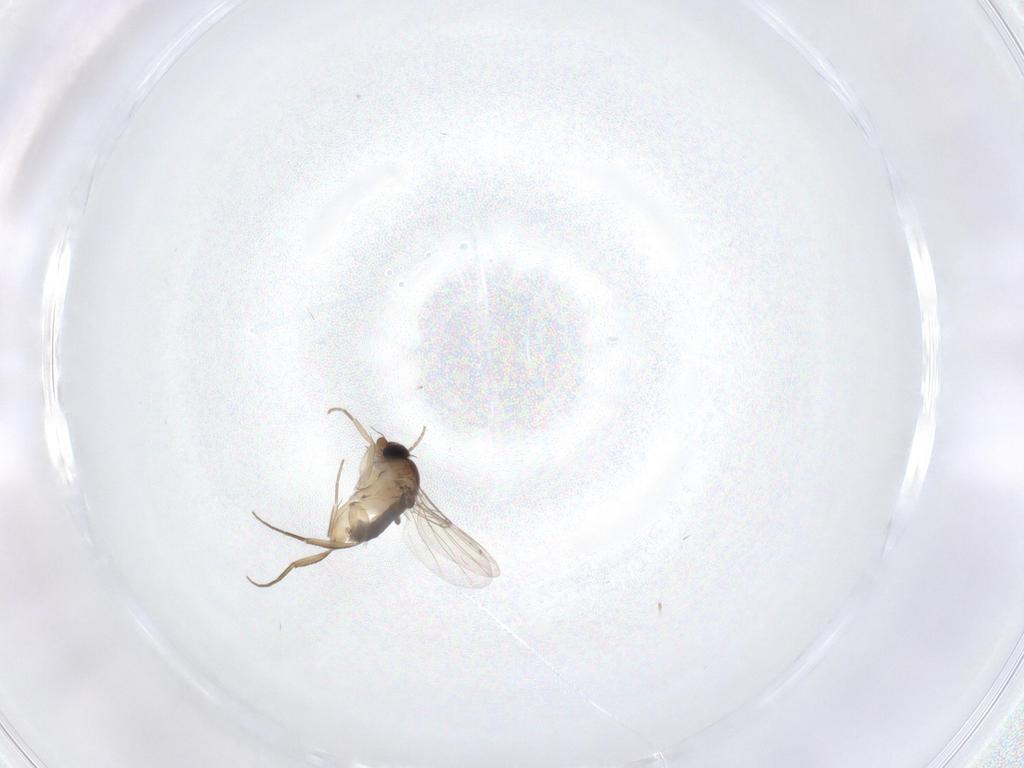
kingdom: Animalia
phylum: Arthropoda
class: Insecta
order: Diptera
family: Phoridae
